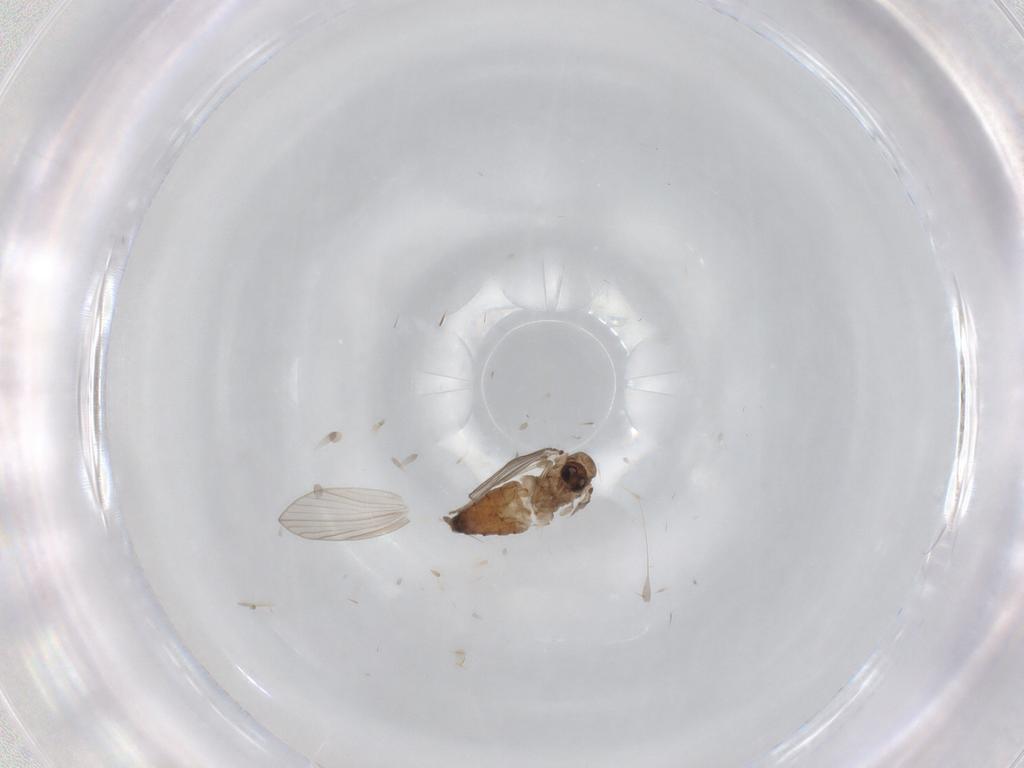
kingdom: Animalia
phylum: Arthropoda
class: Insecta
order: Diptera
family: Psychodidae
